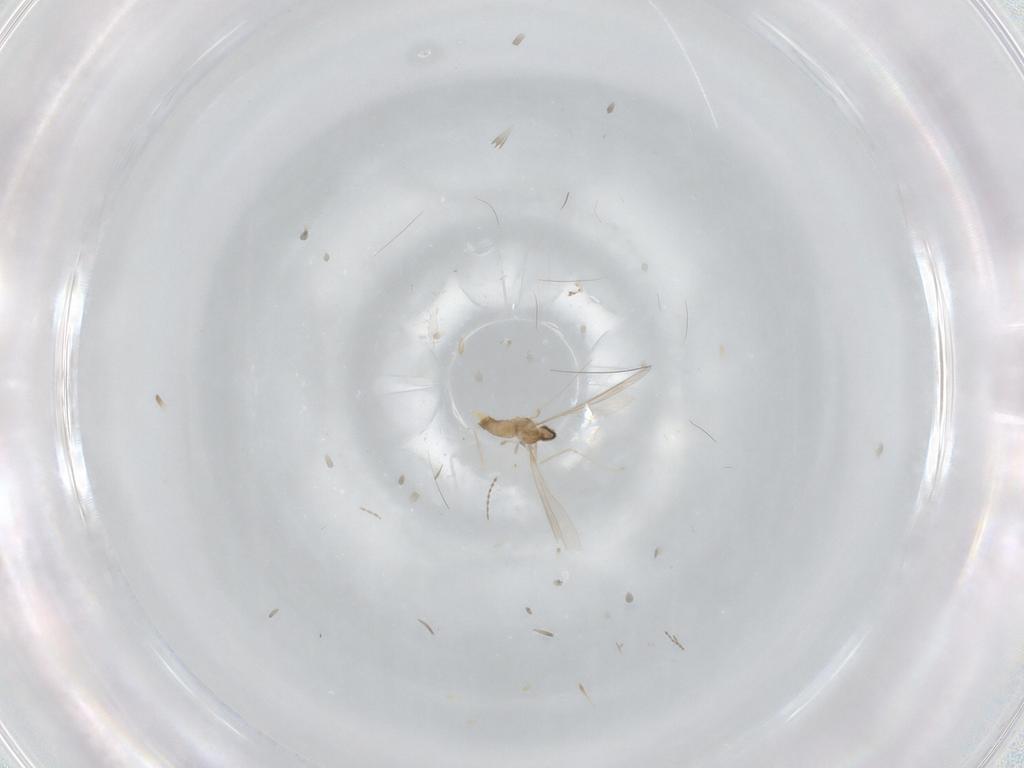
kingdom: Animalia
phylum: Arthropoda
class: Insecta
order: Diptera
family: Cecidomyiidae
